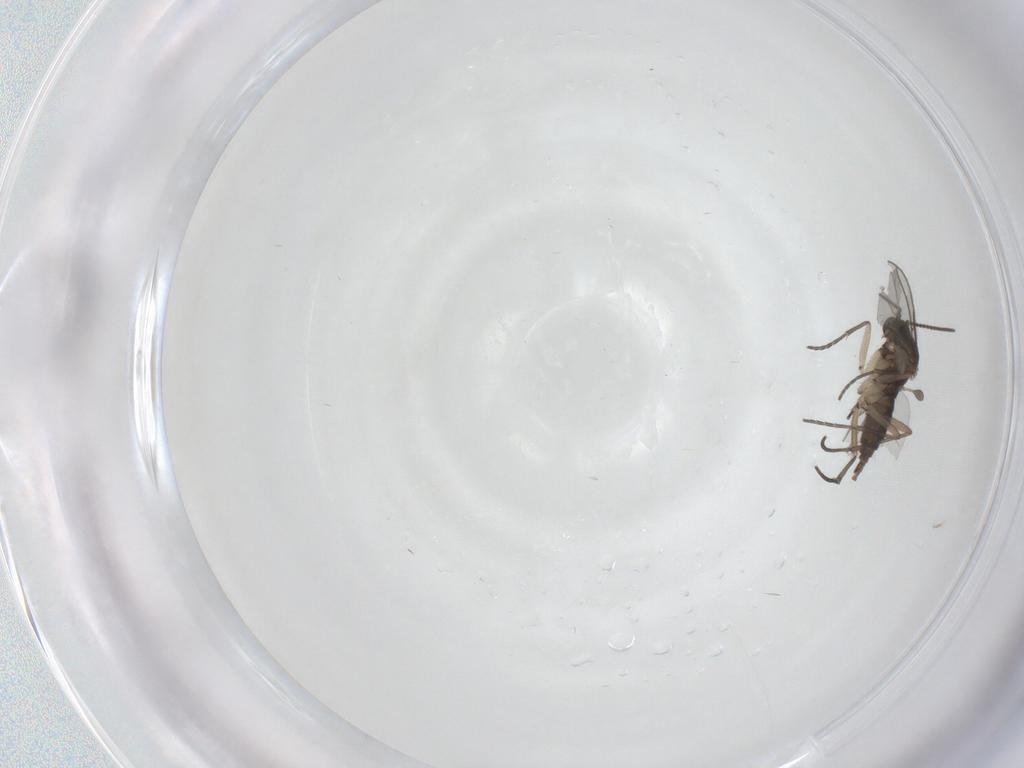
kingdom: Animalia
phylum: Arthropoda
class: Insecta
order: Diptera
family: Sciaridae
